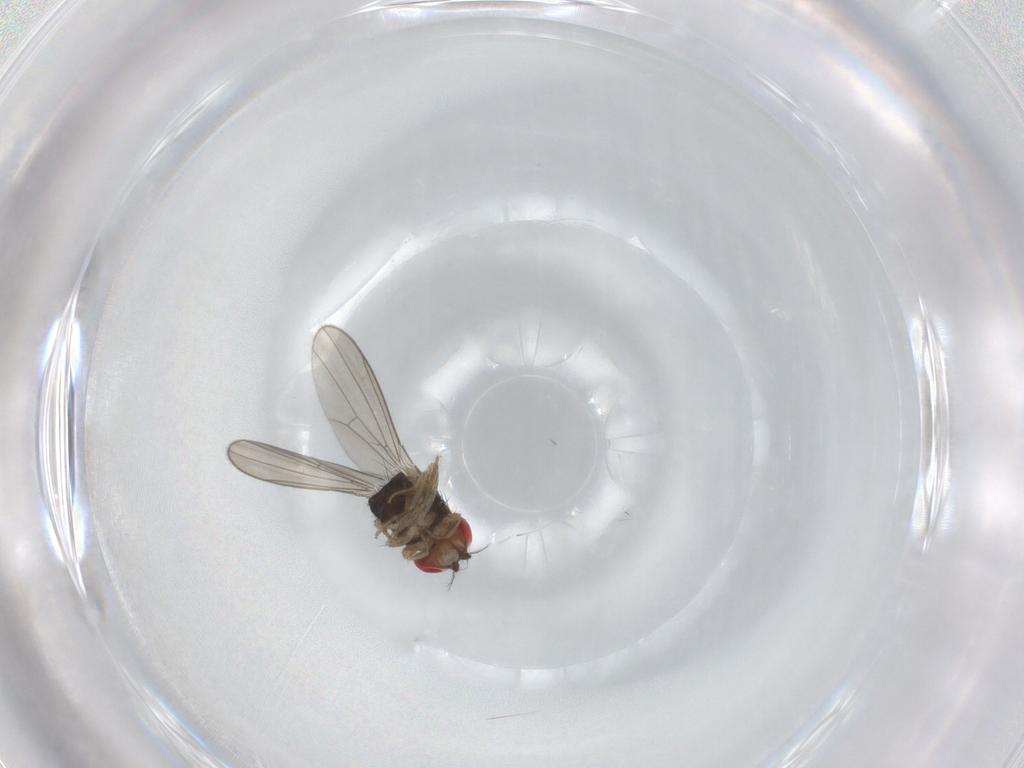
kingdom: Animalia
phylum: Arthropoda
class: Insecta
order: Diptera
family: Drosophilidae
